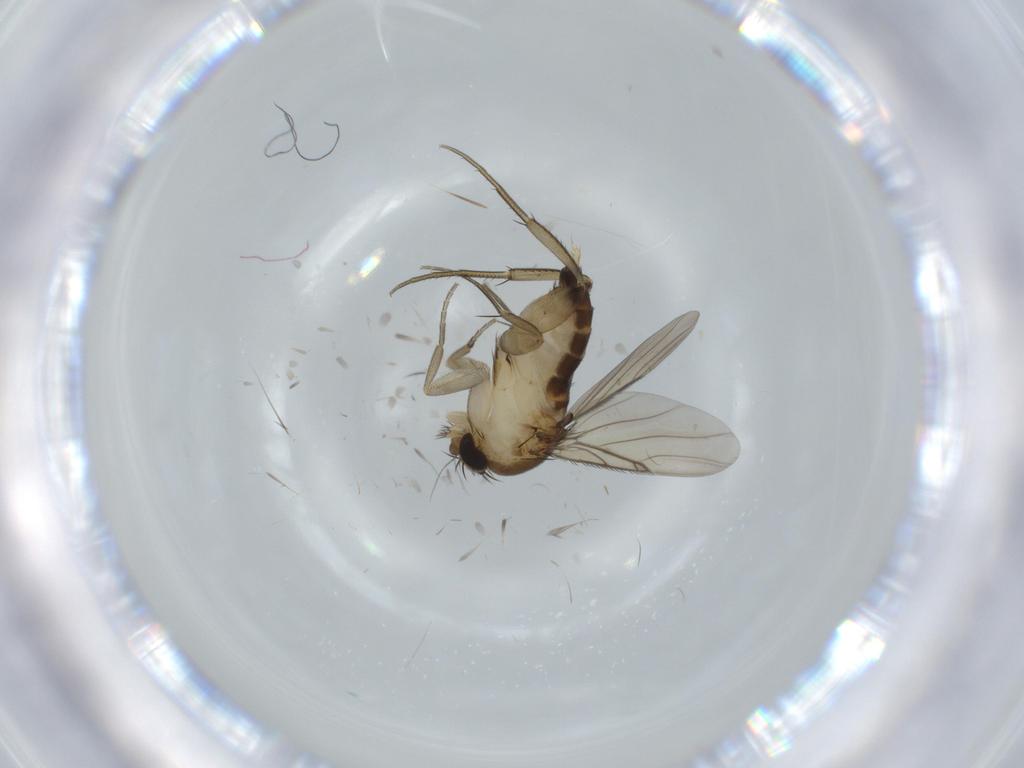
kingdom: Animalia
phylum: Arthropoda
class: Insecta
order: Diptera
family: Phoridae
